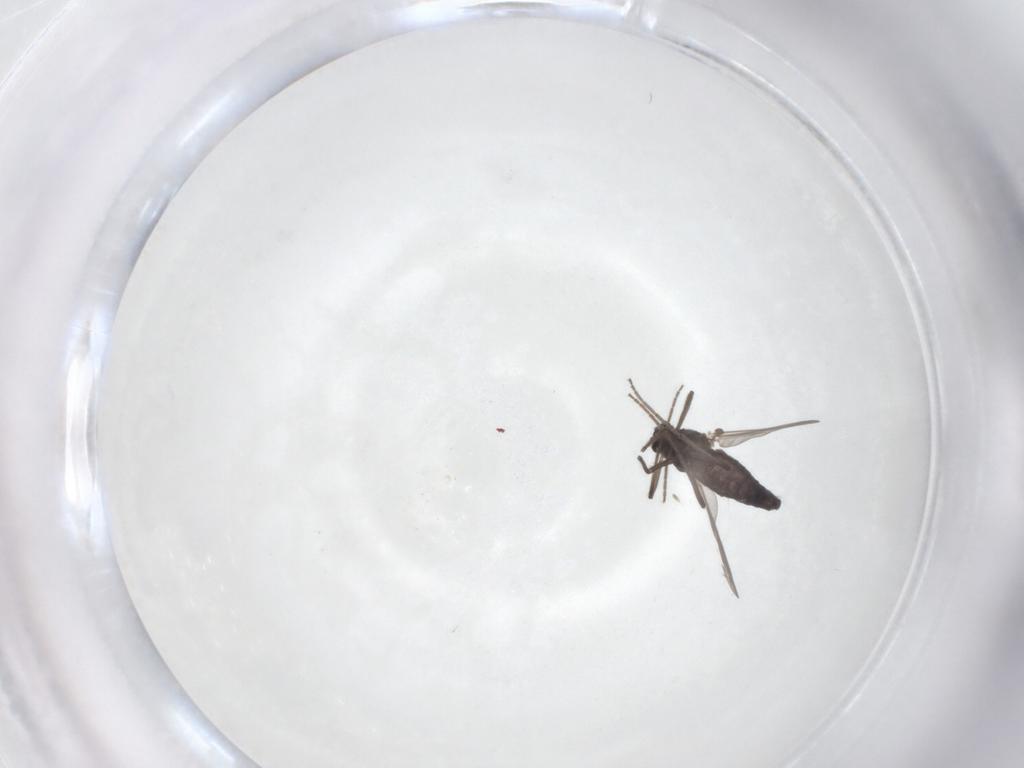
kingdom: Animalia
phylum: Arthropoda
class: Insecta
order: Diptera
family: Chironomidae
